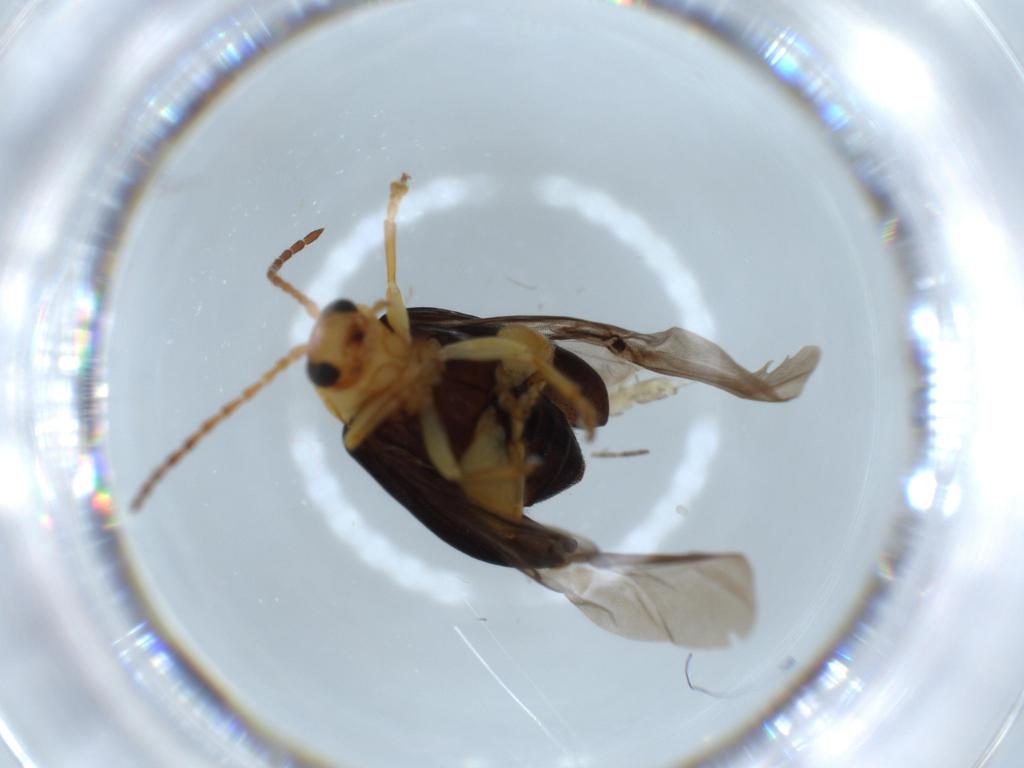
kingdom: Animalia
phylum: Arthropoda
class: Insecta
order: Coleoptera
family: Chrysomelidae
